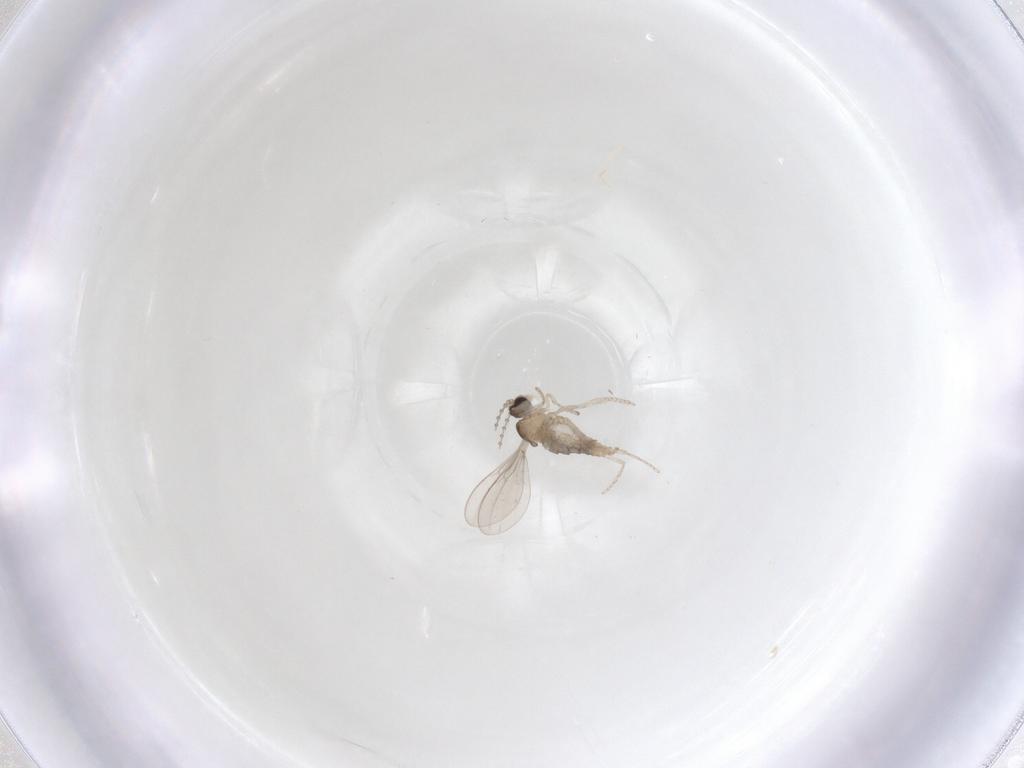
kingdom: Animalia
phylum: Arthropoda
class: Insecta
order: Diptera
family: Cecidomyiidae
